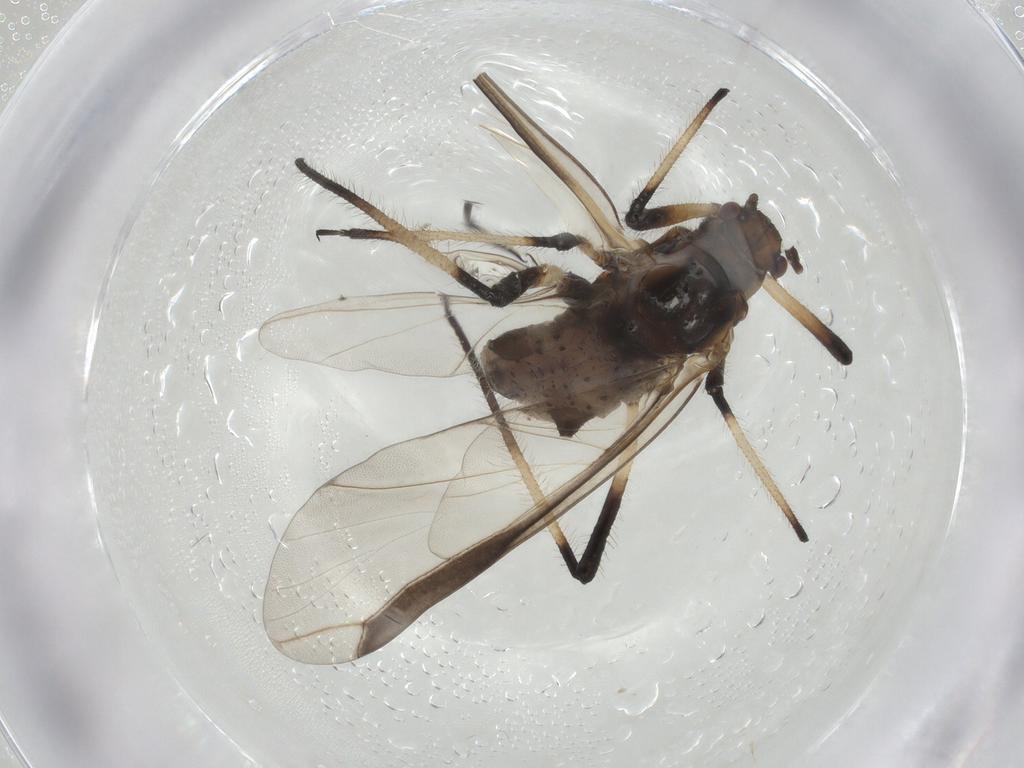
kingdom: Animalia
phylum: Arthropoda
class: Insecta
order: Hemiptera
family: Lachnidae
